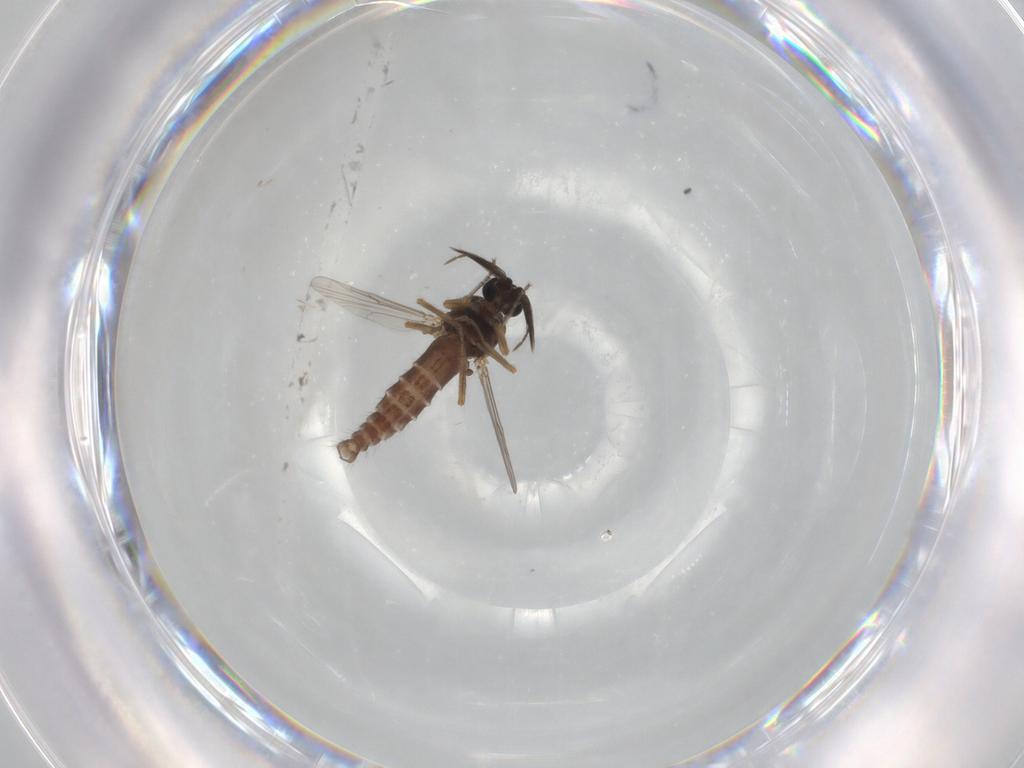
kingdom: Animalia
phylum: Arthropoda
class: Insecta
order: Diptera
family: Ceratopogonidae
